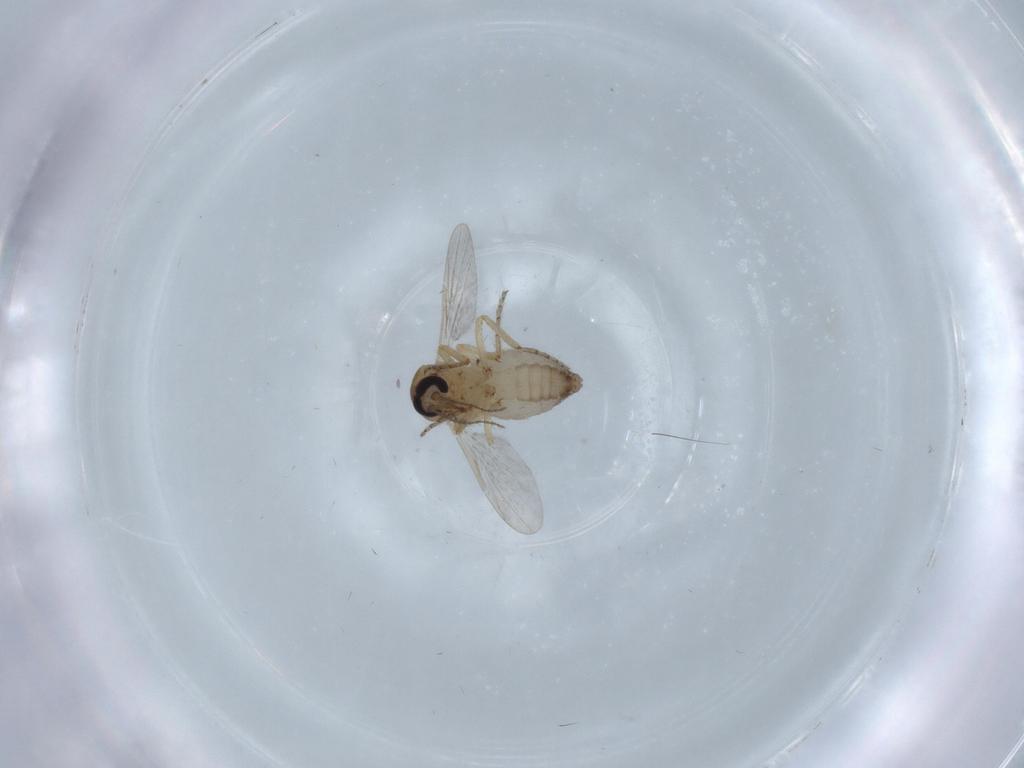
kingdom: Animalia
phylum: Arthropoda
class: Insecta
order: Diptera
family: Ceratopogonidae
